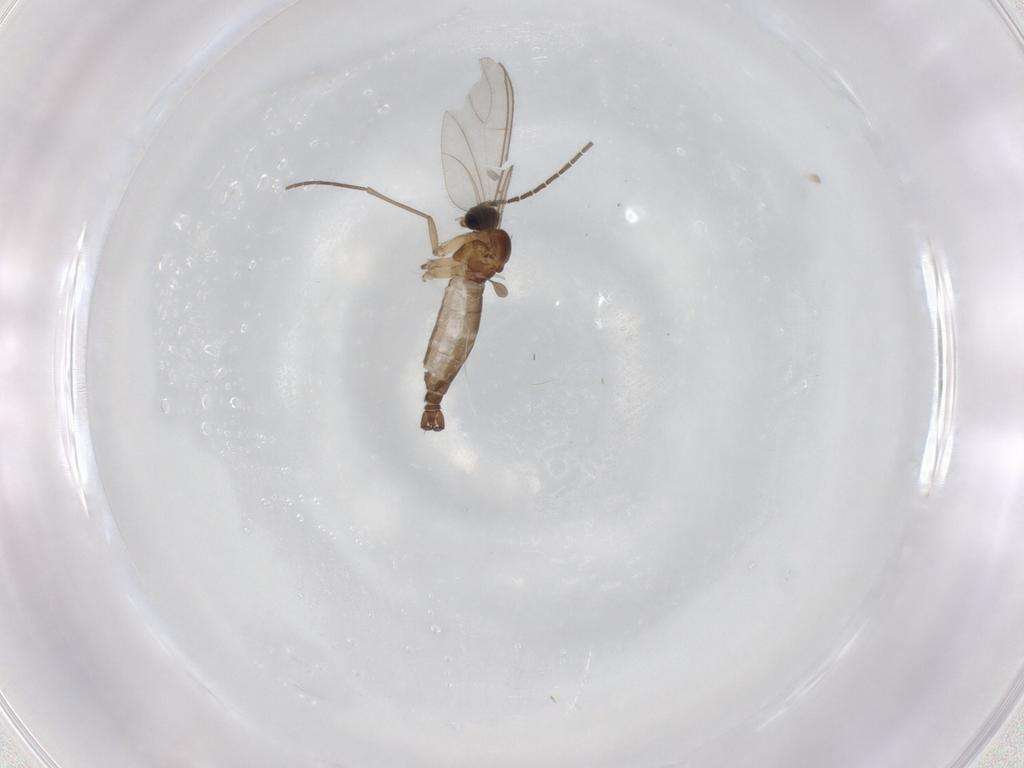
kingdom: Animalia
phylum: Arthropoda
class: Insecta
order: Diptera
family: Sciaridae
